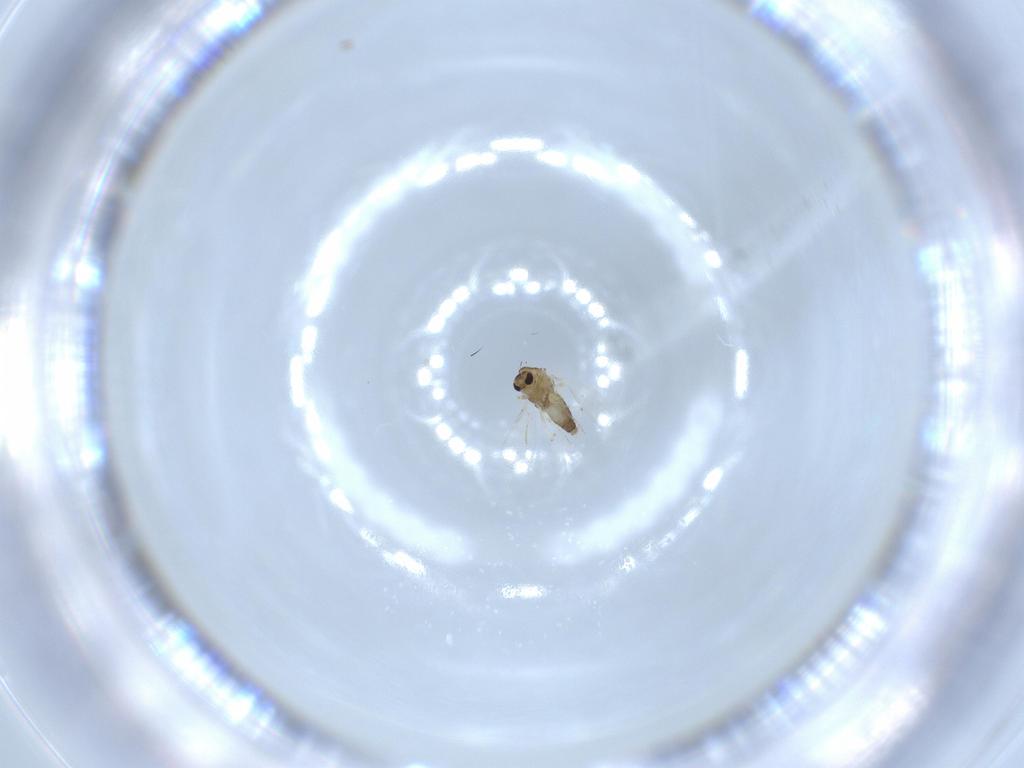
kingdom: Animalia
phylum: Arthropoda
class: Insecta
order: Diptera
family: Chironomidae
